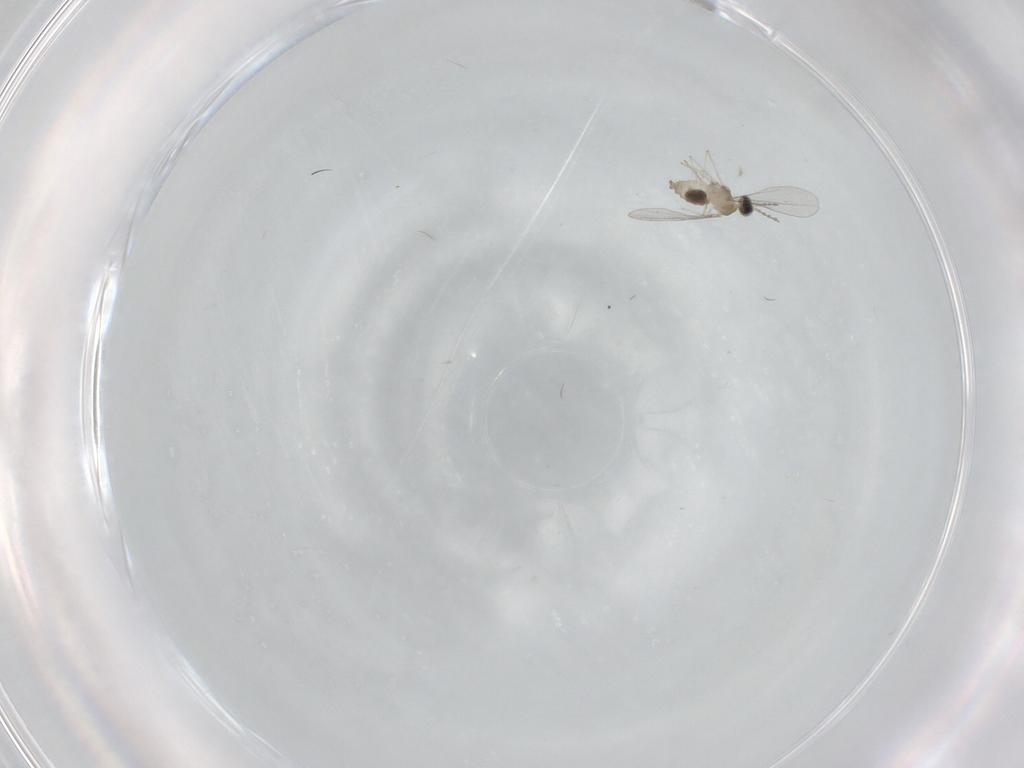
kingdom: Animalia
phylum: Arthropoda
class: Insecta
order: Diptera
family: Cecidomyiidae
